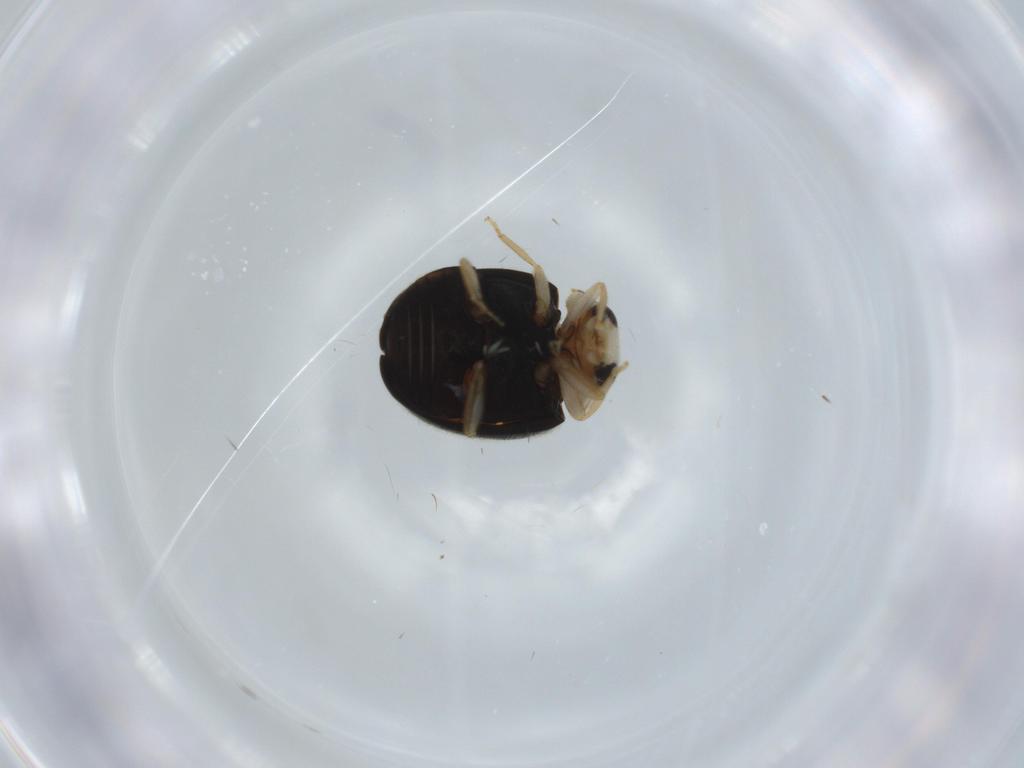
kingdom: Animalia
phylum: Arthropoda
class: Insecta
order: Coleoptera
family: Coccinellidae
